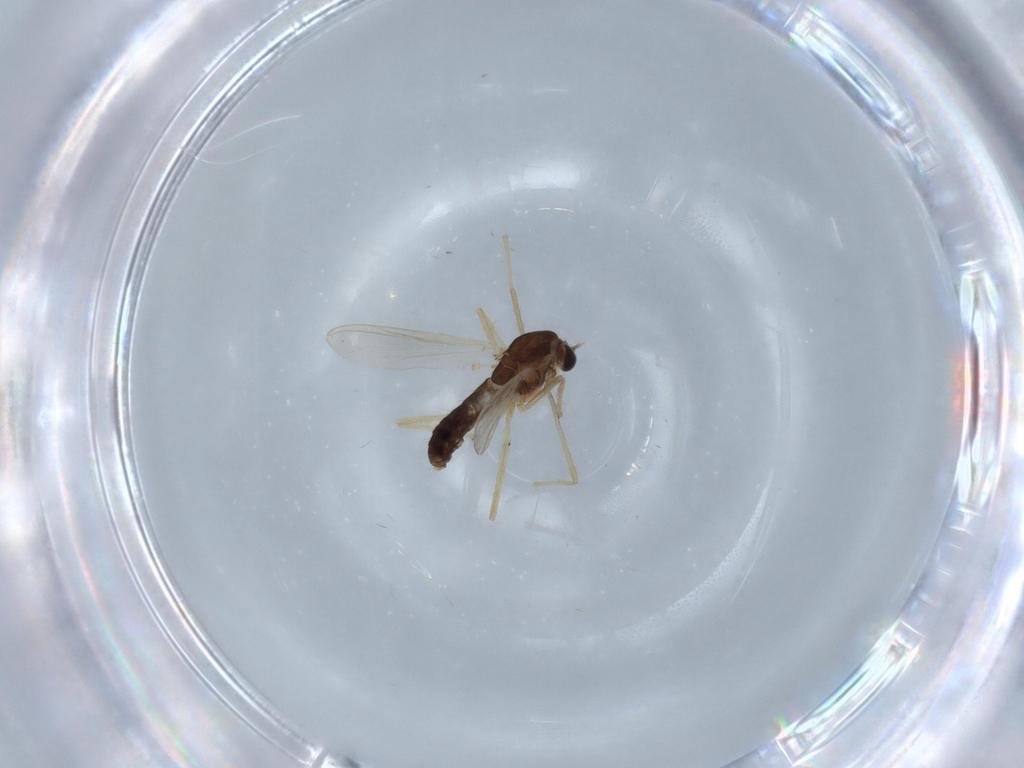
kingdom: Animalia
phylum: Arthropoda
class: Insecta
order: Diptera
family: Chironomidae
